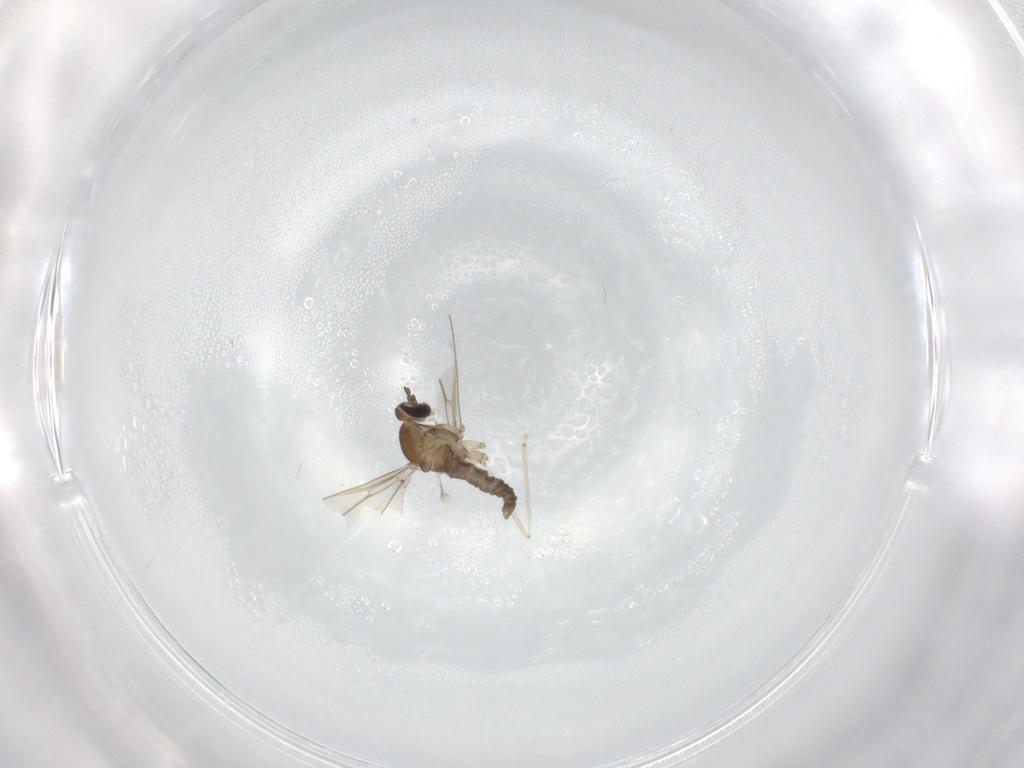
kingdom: Animalia
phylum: Arthropoda
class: Insecta
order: Diptera
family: Cecidomyiidae
